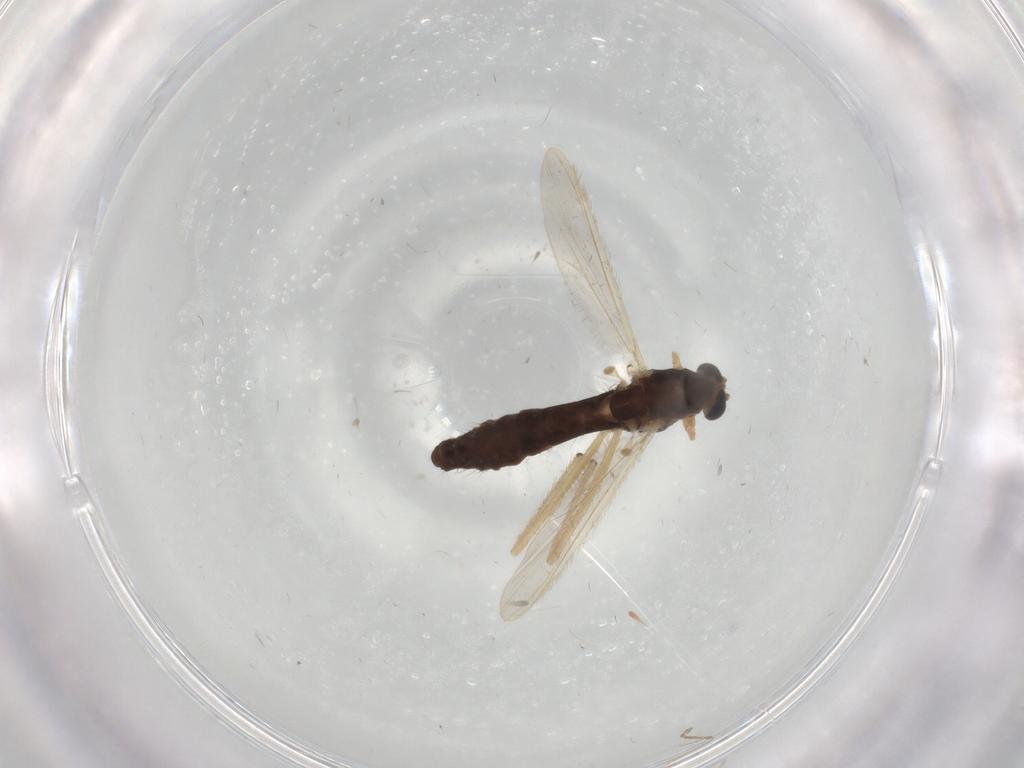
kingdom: Animalia
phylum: Arthropoda
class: Insecta
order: Diptera
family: Chironomidae
